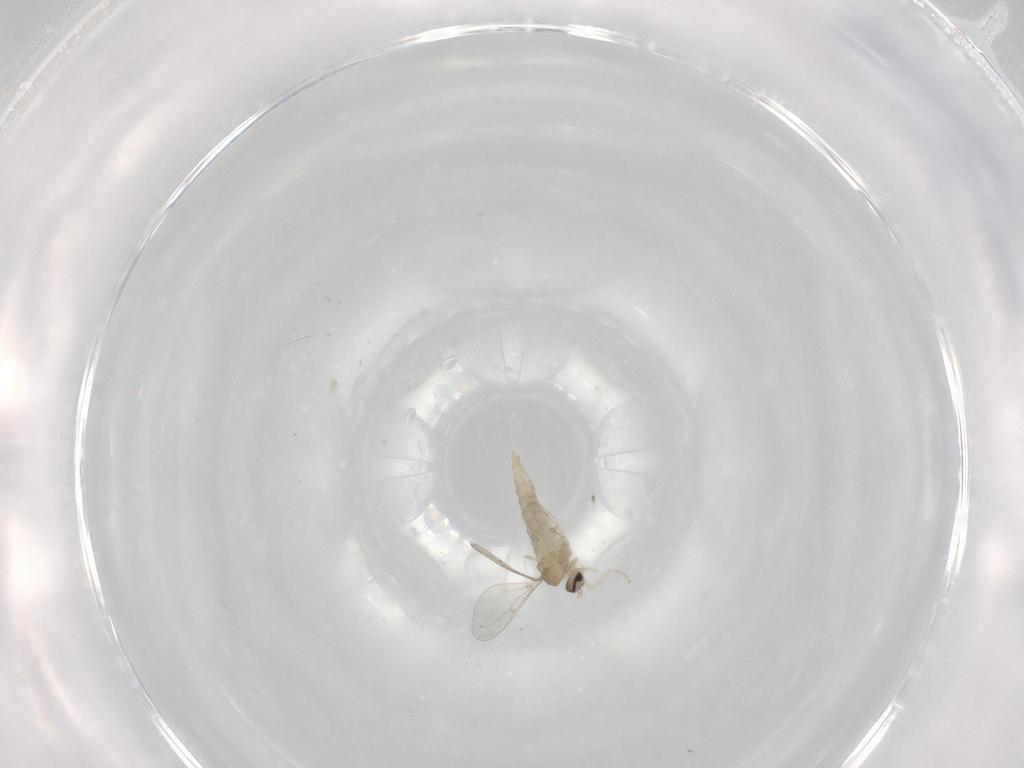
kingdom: Animalia
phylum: Arthropoda
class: Insecta
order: Diptera
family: Cecidomyiidae
